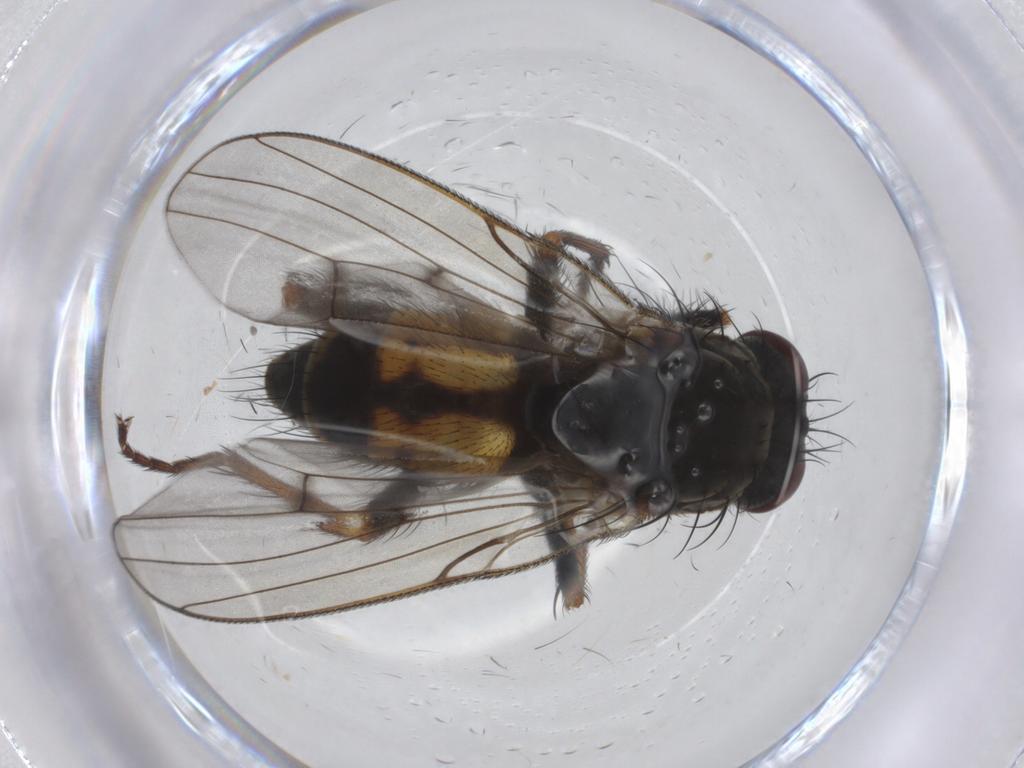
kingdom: Animalia
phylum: Arthropoda
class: Insecta
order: Diptera
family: Muscidae
